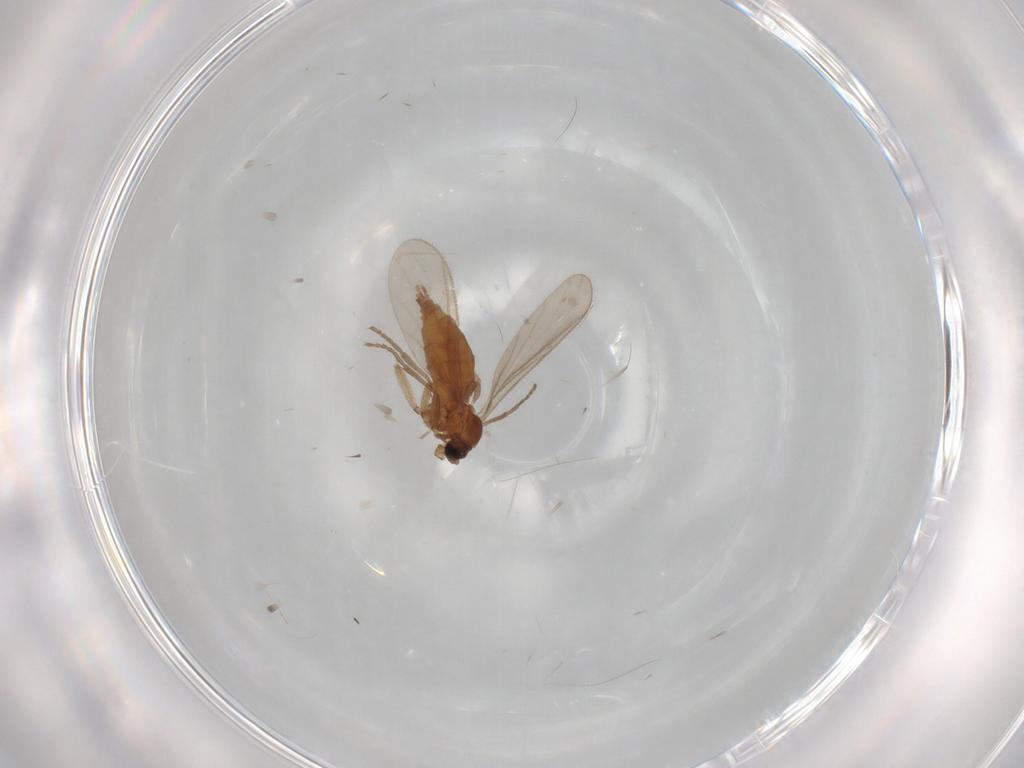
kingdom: Animalia
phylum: Arthropoda
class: Insecta
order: Diptera
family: Sciaridae
